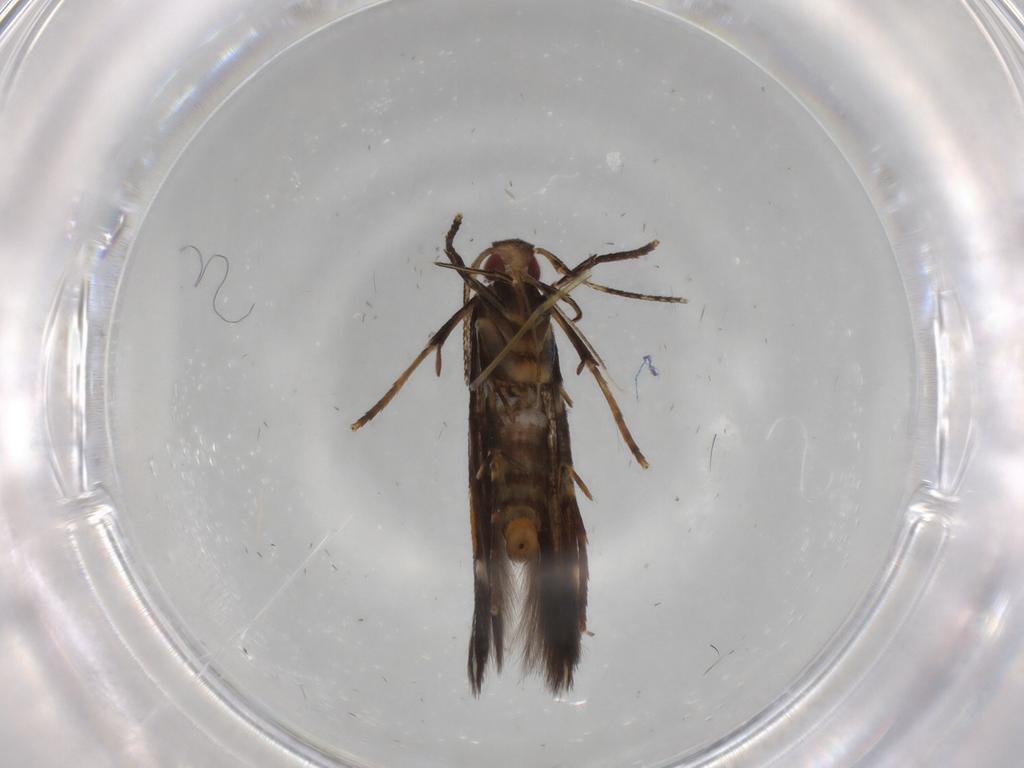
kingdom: Animalia
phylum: Arthropoda
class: Insecta
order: Lepidoptera
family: Cosmopterigidae
